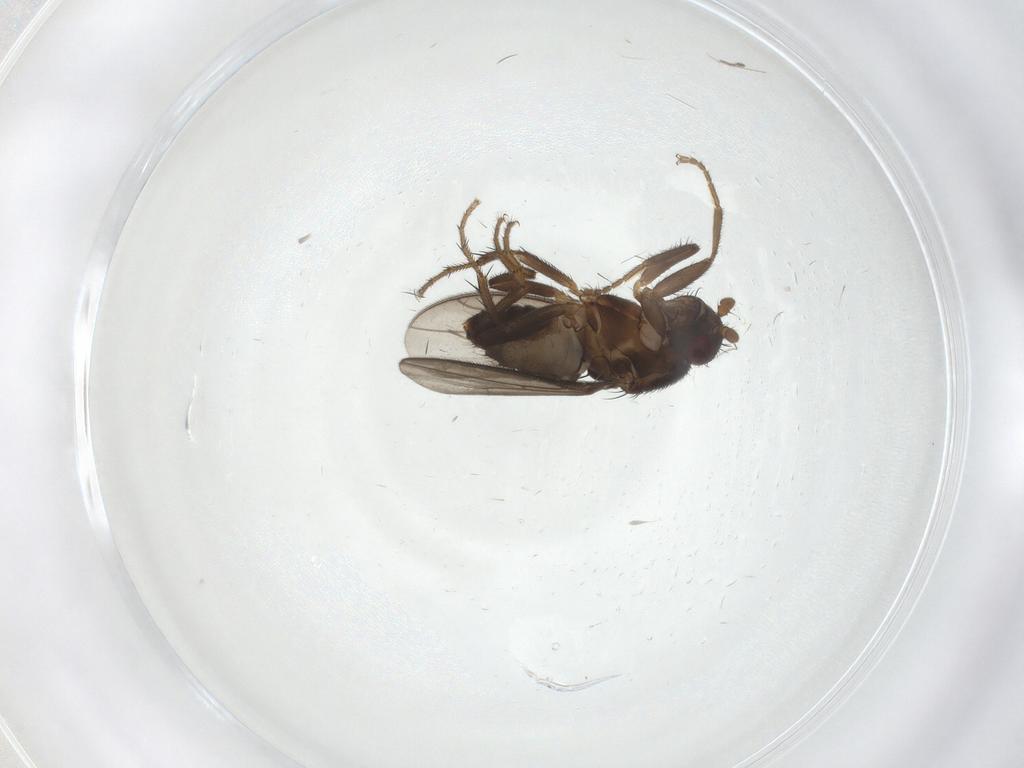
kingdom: Animalia
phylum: Arthropoda
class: Insecta
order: Diptera
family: Sphaeroceridae
